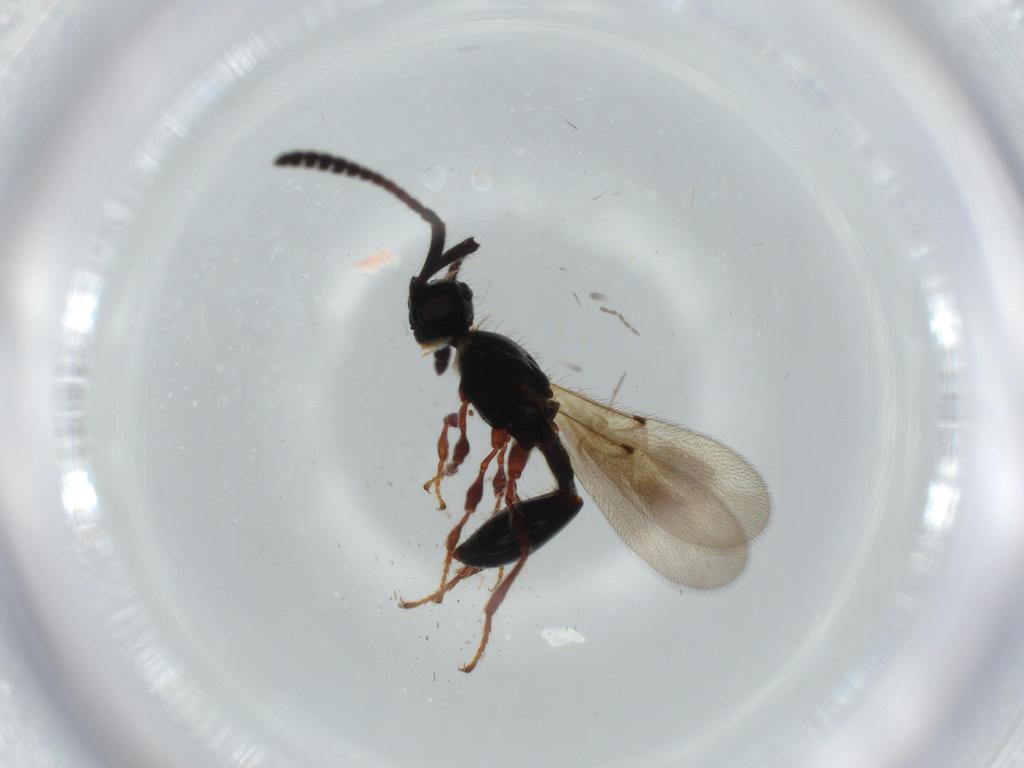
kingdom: Animalia
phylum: Arthropoda
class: Insecta
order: Hymenoptera
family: Diapriidae
